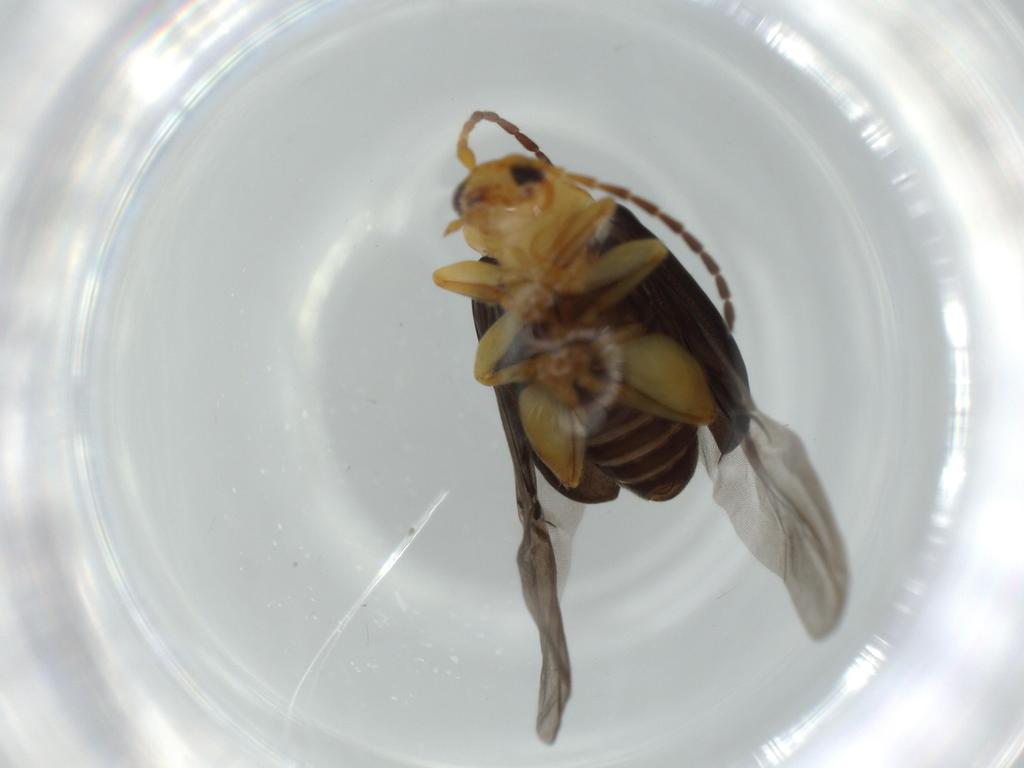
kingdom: Animalia
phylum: Arthropoda
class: Insecta
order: Coleoptera
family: Chrysomelidae
